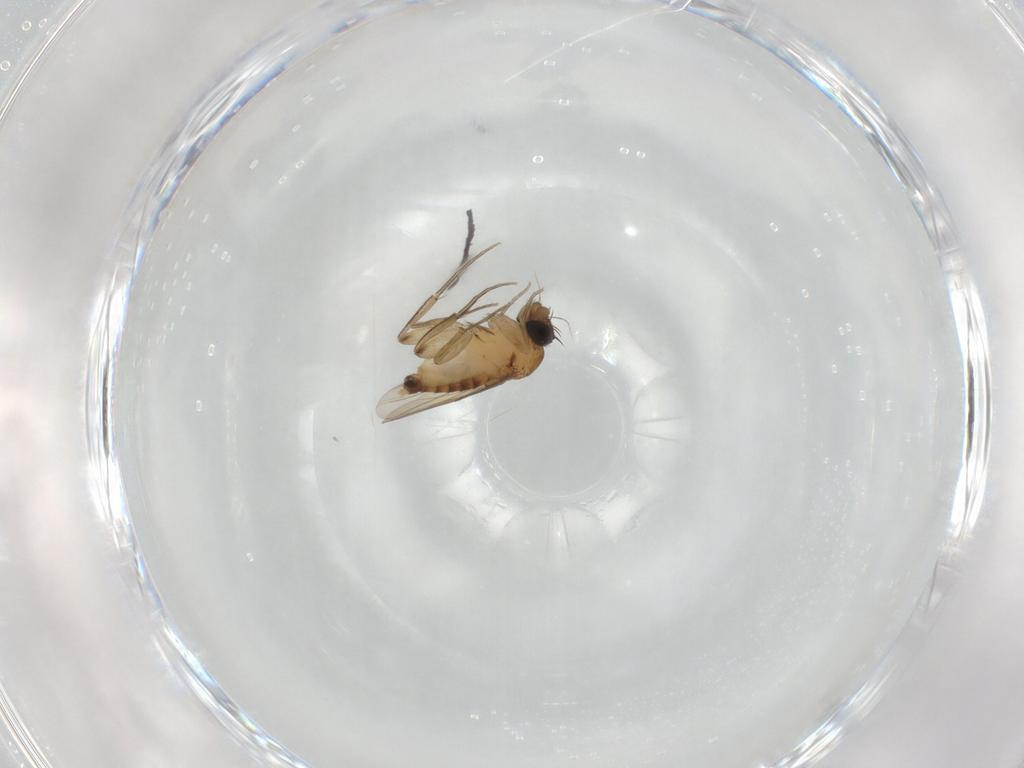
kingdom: Animalia
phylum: Arthropoda
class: Insecta
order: Diptera
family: Phoridae
